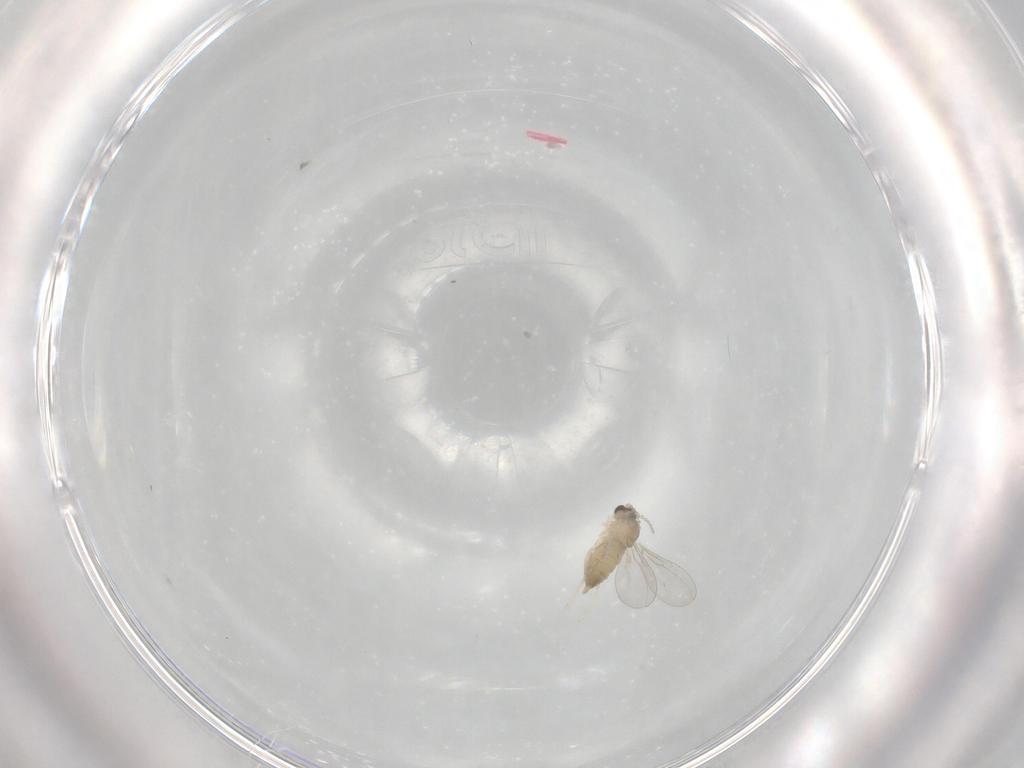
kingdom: Animalia
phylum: Arthropoda
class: Insecta
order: Diptera
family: Cecidomyiidae
